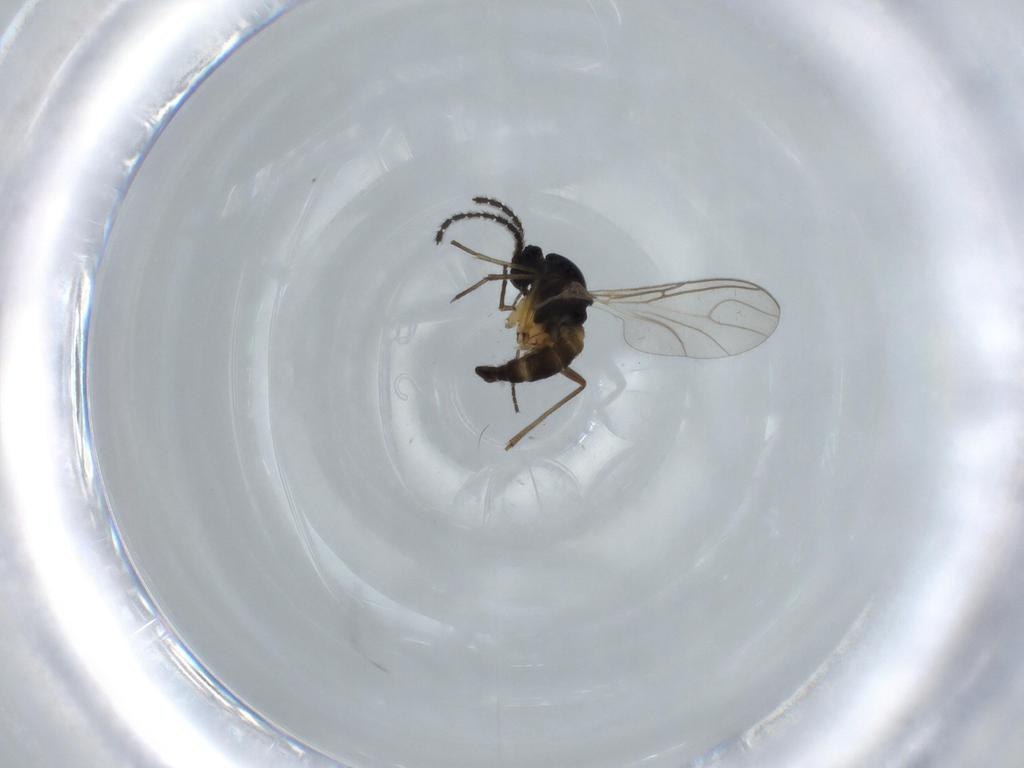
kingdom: Animalia
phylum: Arthropoda
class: Insecta
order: Diptera
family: Sciaridae
